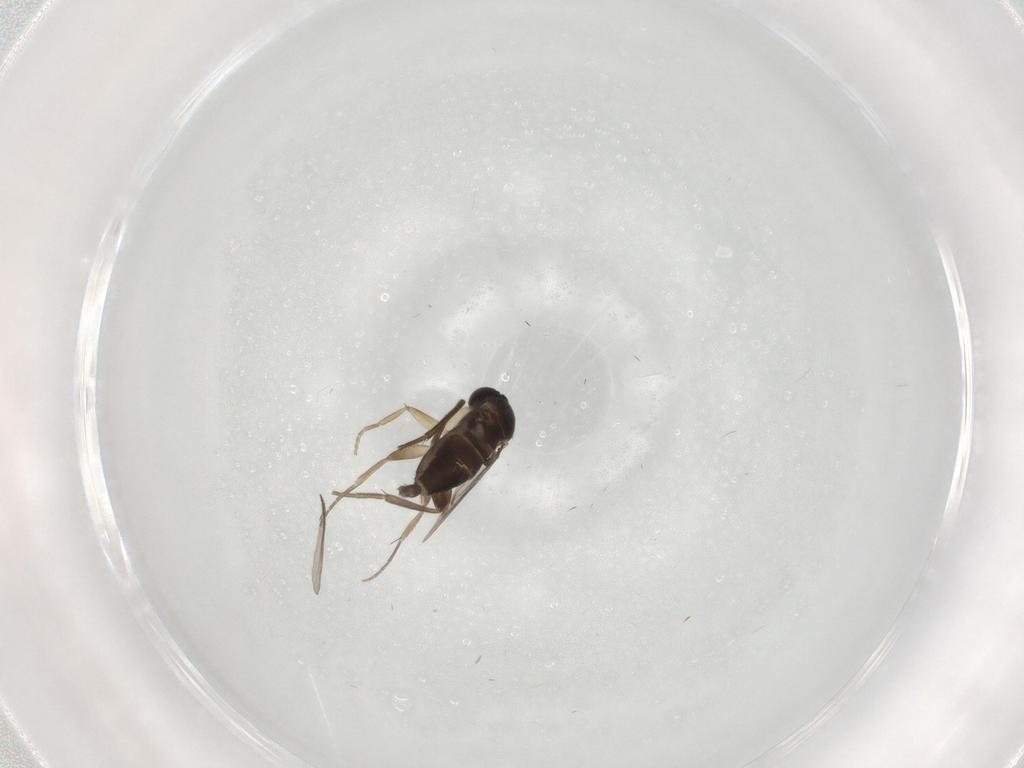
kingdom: Animalia
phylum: Arthropoda
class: Insecta
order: Diptera
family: Phoridae
